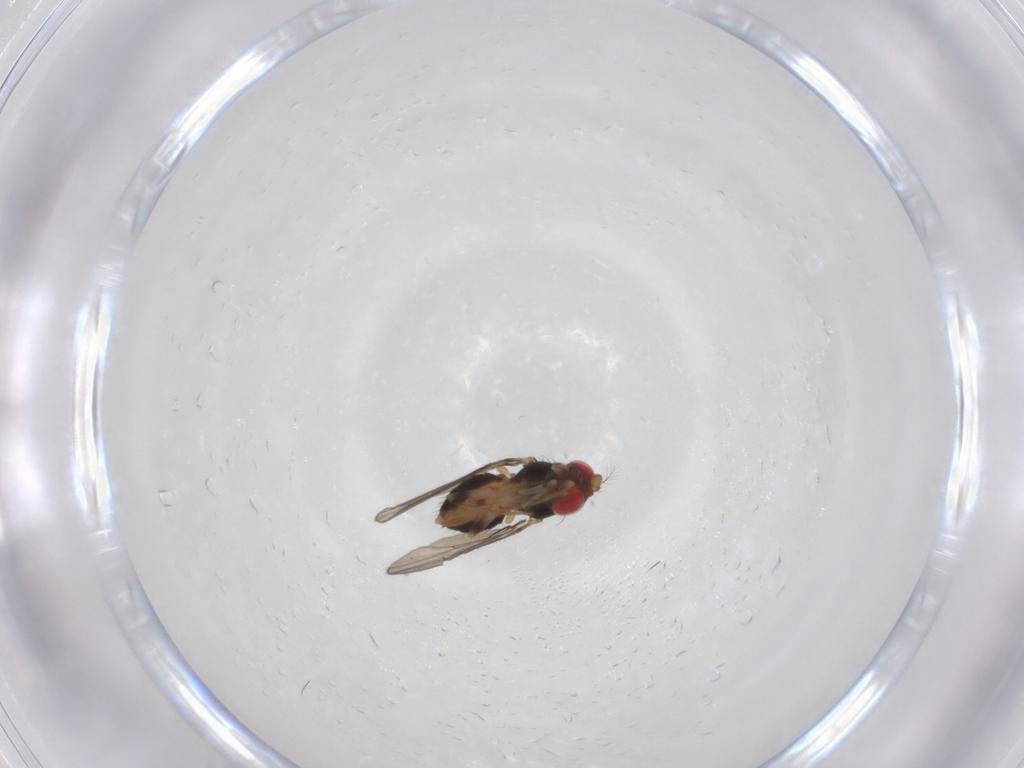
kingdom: Animalia
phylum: Arthropoda
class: Insecta
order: Diptera
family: Drosophilidae
